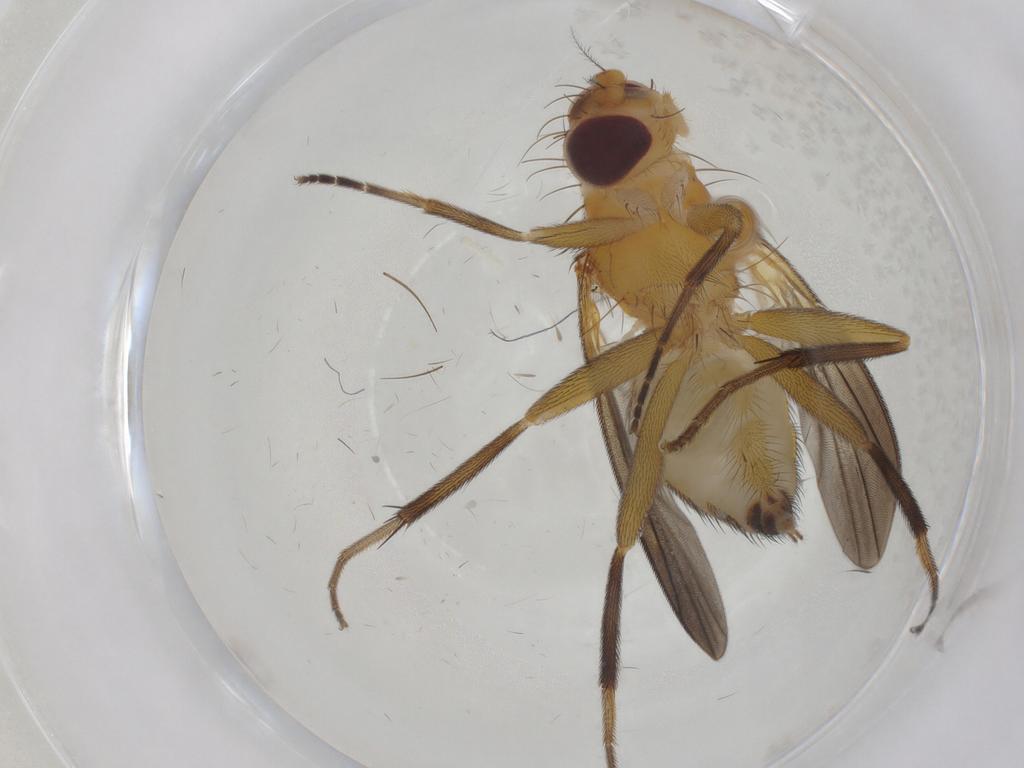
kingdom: Animalia
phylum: Arthropoda
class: Insecta
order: Diptera
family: Clusiidae
